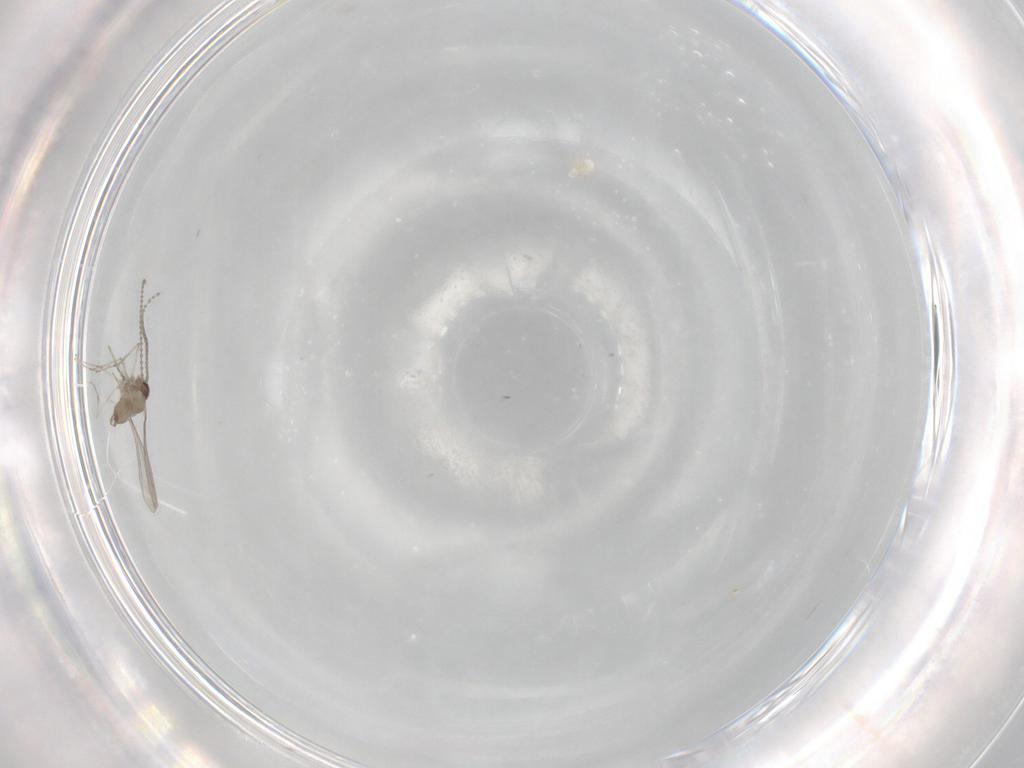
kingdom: Animalia
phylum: Arthropoda
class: Insecta
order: Diptera
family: Cecidomyiidae
